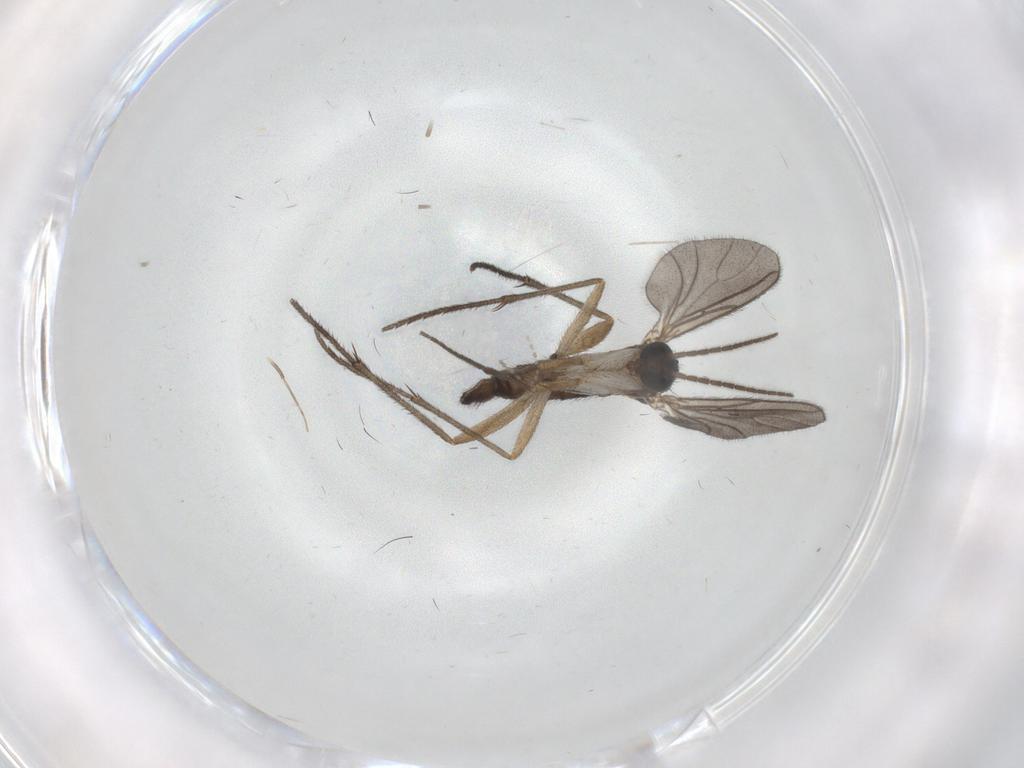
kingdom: Animalia
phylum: Arthropoda
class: Insecta
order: Diptera
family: Sciaridae
